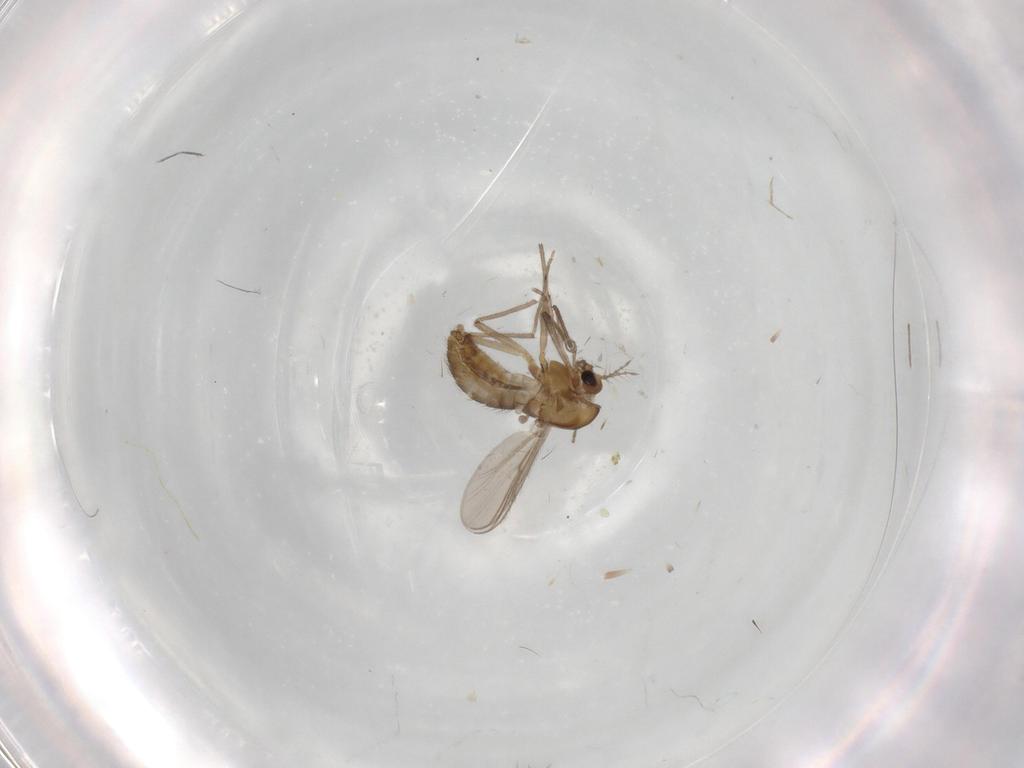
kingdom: Animalia
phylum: Arthropoda
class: Insecta
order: Diptera
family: Chironomidae
